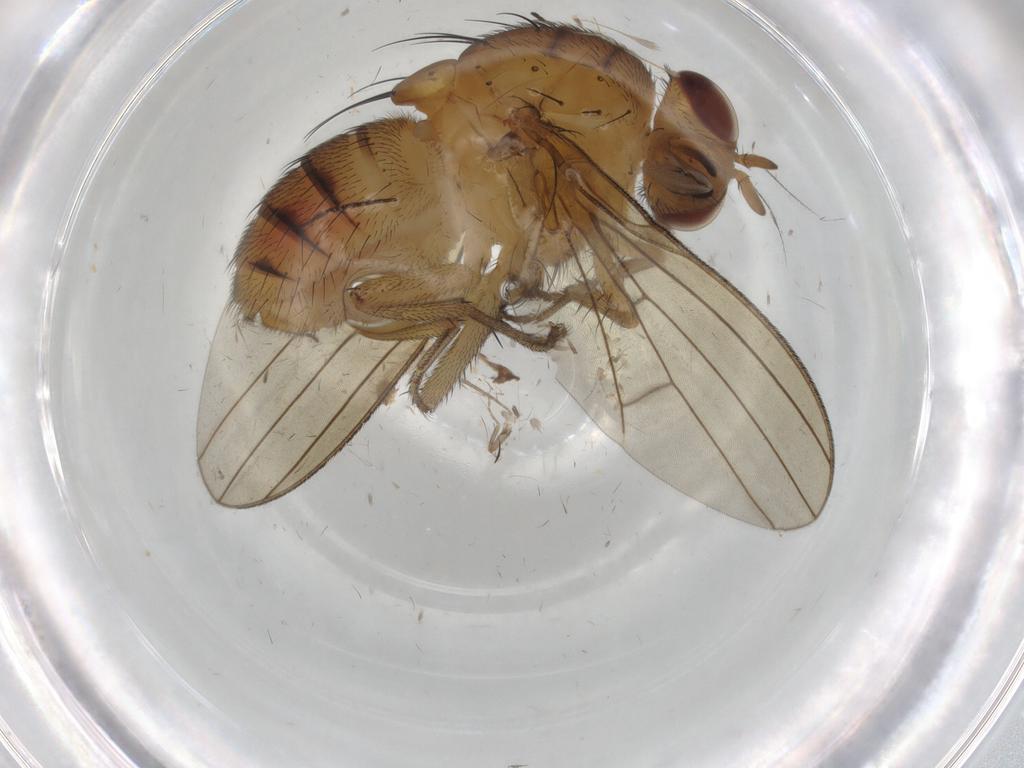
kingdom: Animalia
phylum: Arthropoda
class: Insecta
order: Diptera
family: Sciaridae
